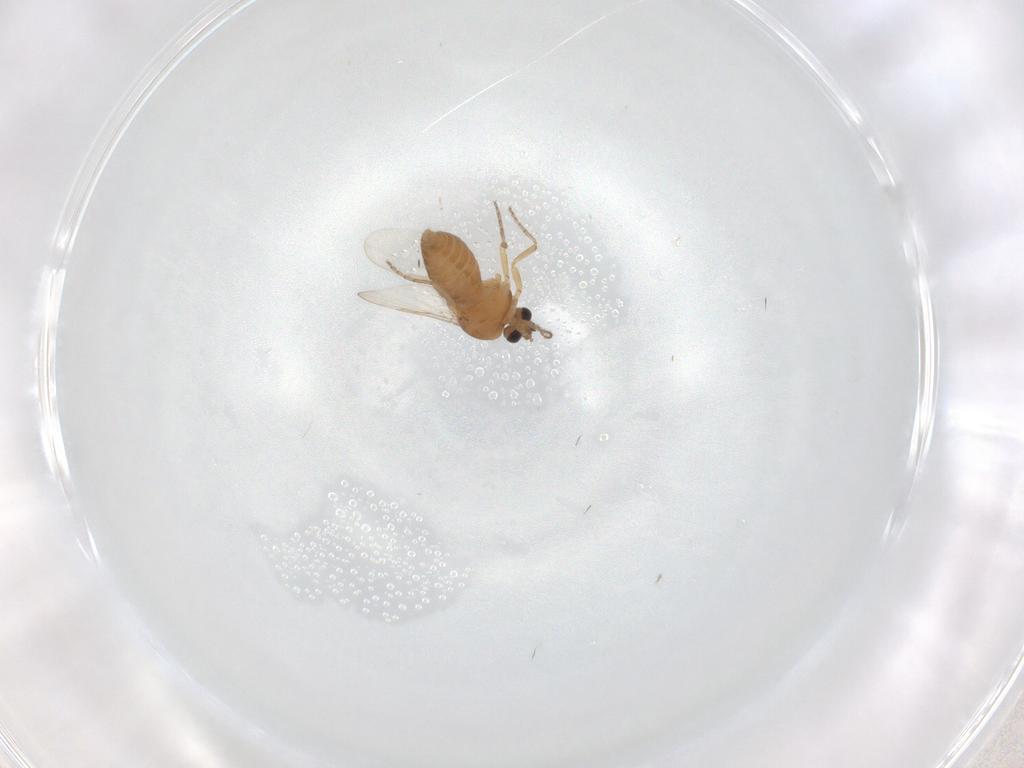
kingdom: Animalia
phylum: Arthropoda
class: Insecta
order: Diptera
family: Ceratopogonidae
